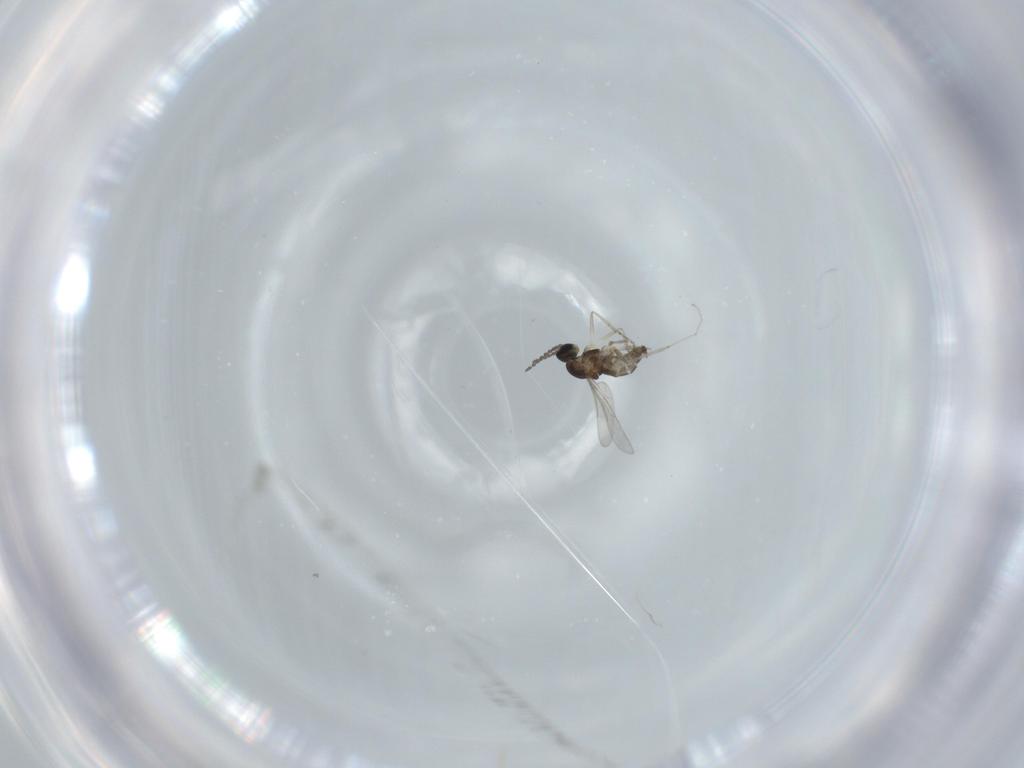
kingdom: Animalia
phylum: Arthropoda
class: Insecta
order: Diptera
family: Cecidomyiidae
